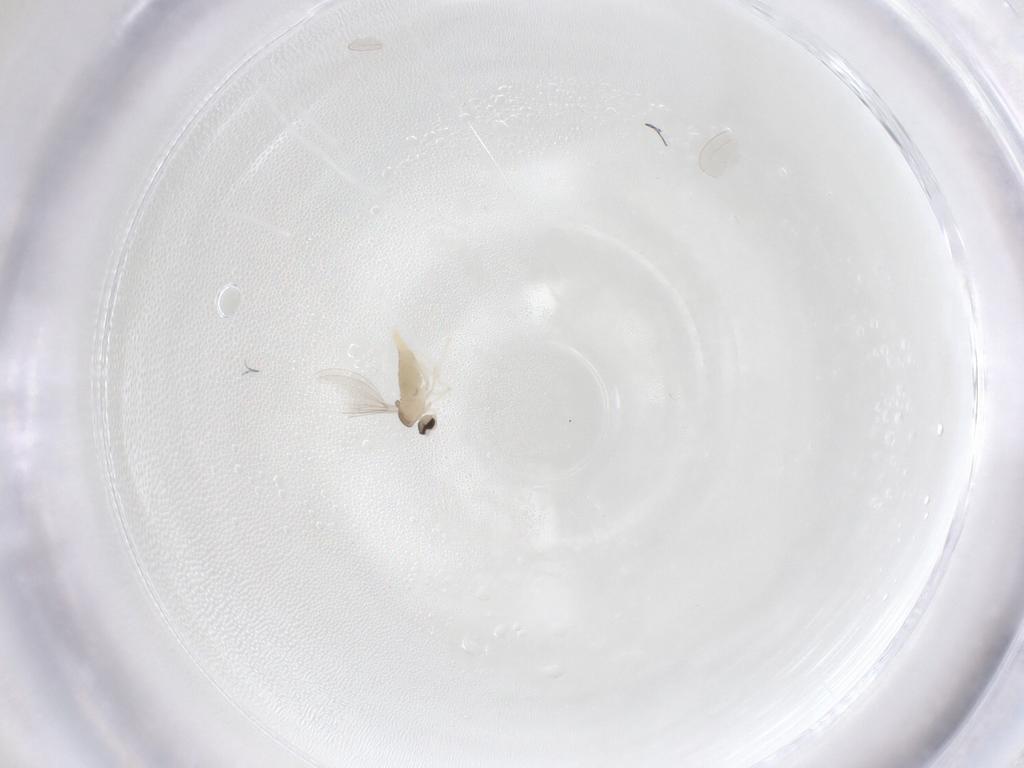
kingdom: Animalia
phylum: Arthropoda
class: Insecta
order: Diptera
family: Cecidomyiidae
